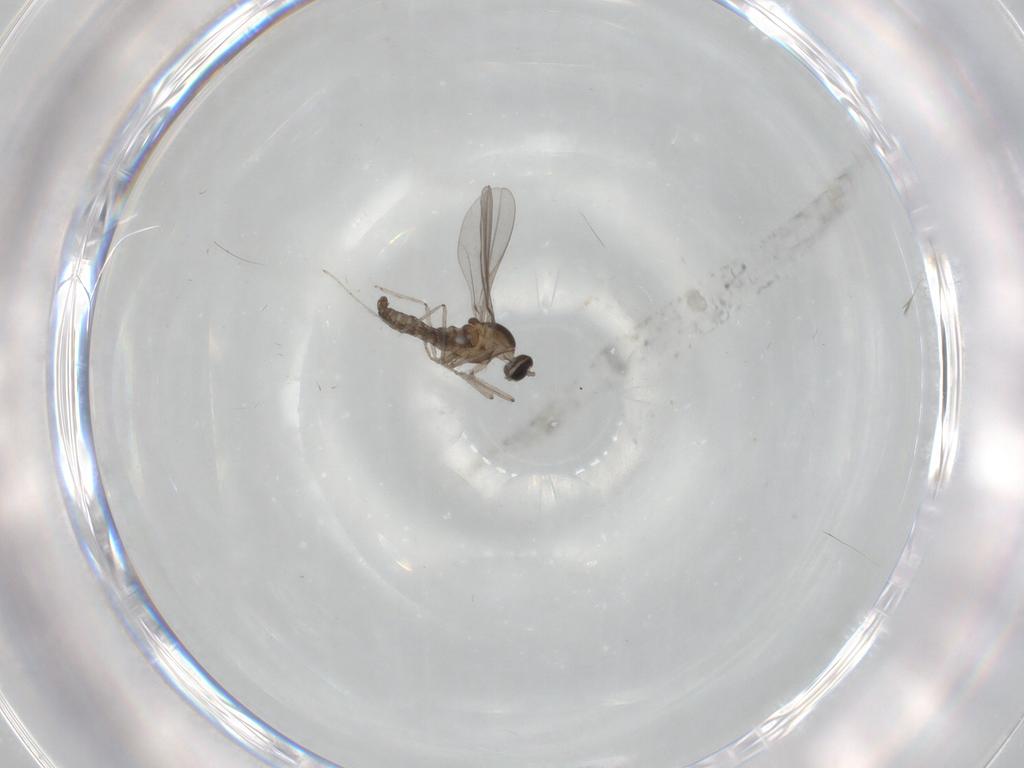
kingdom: Animalia
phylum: Arthropoda
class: Insecta
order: Diptera
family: Cecidomyiidae
